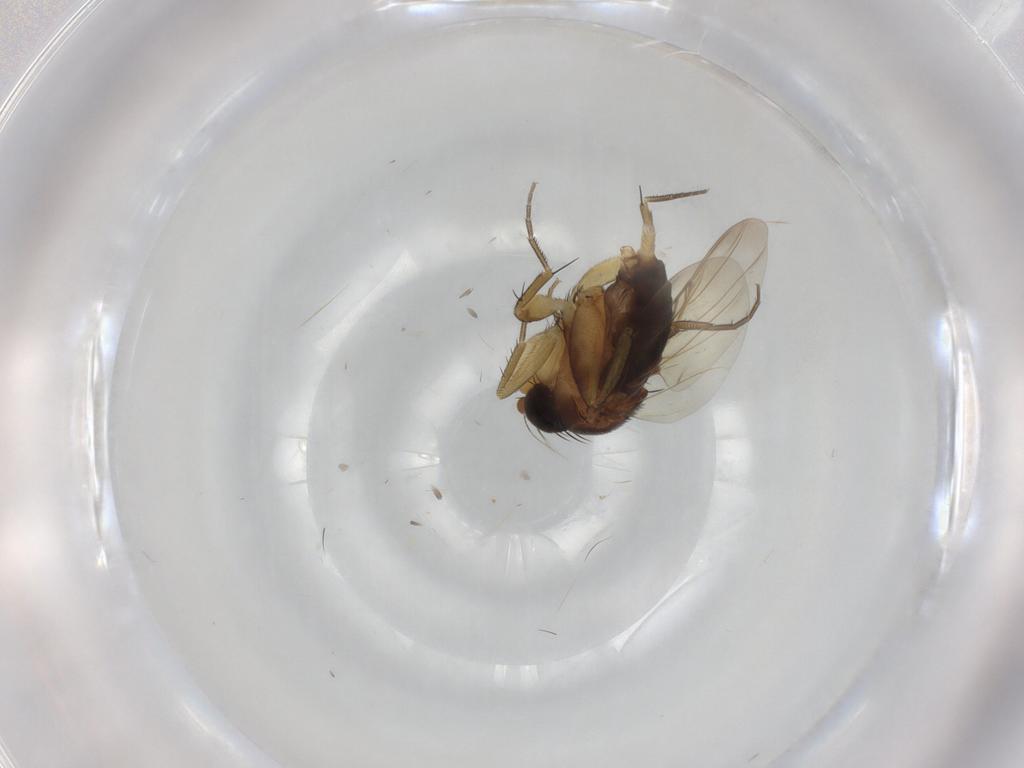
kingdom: Animalia
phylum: Arthropoda
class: Insecta
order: Diptera
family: Phoridae
